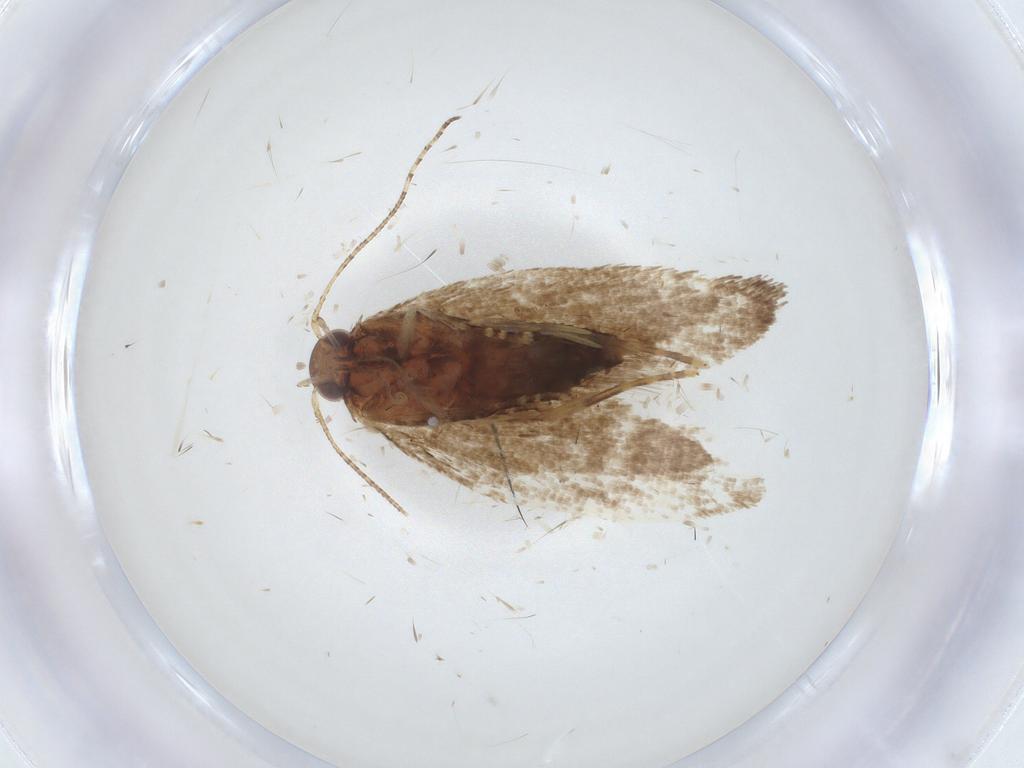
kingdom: Animalia
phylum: Arthropoda
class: Insecta
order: Lepidoptera
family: Oecophoridae
